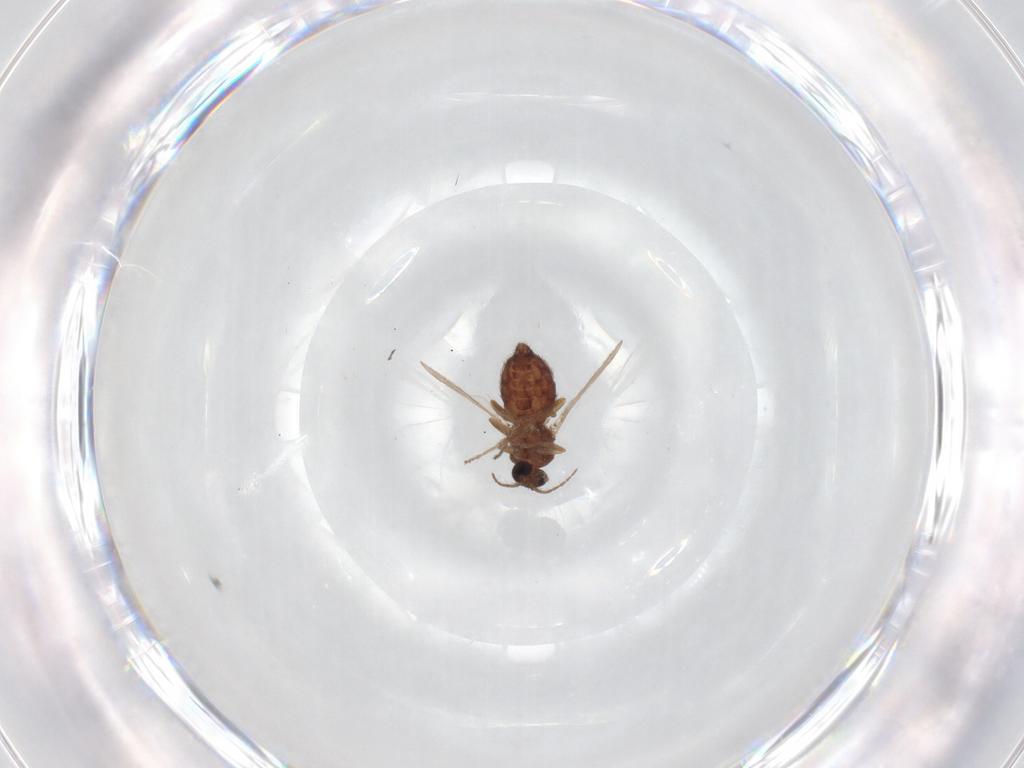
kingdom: Animalia
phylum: Arthropoda
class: Insecta
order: Diptera
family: Ceratopogonidae
